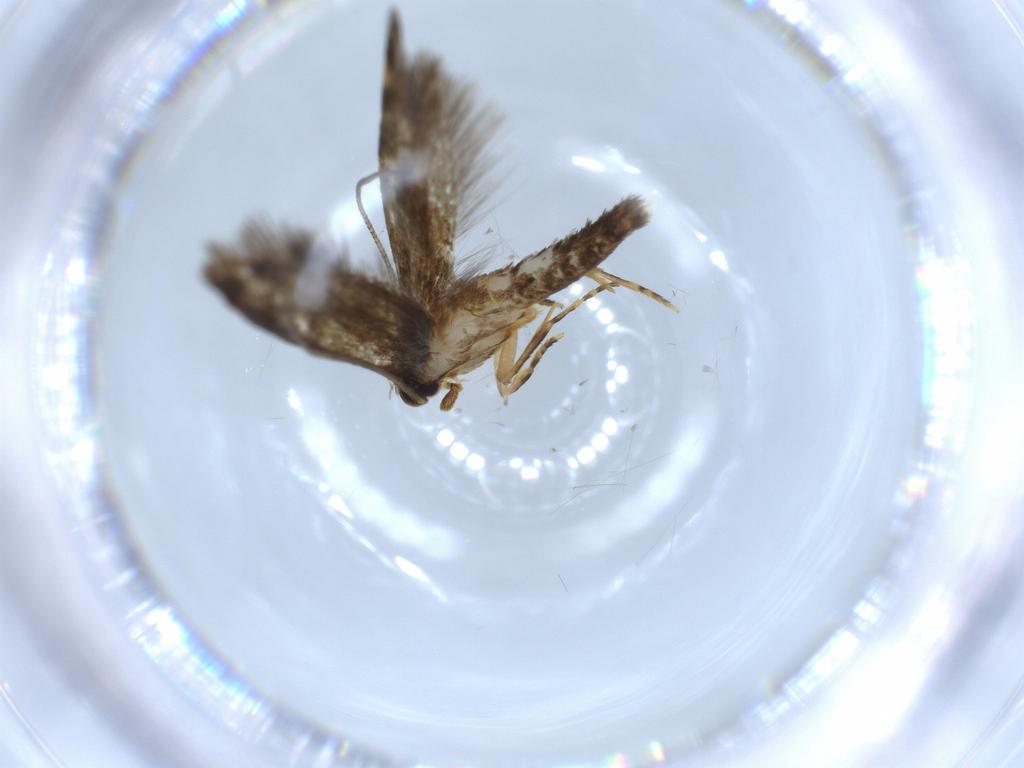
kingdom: Animalia
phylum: Arthropoda
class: Insecta
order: Lepidoptera
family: Tineidae
